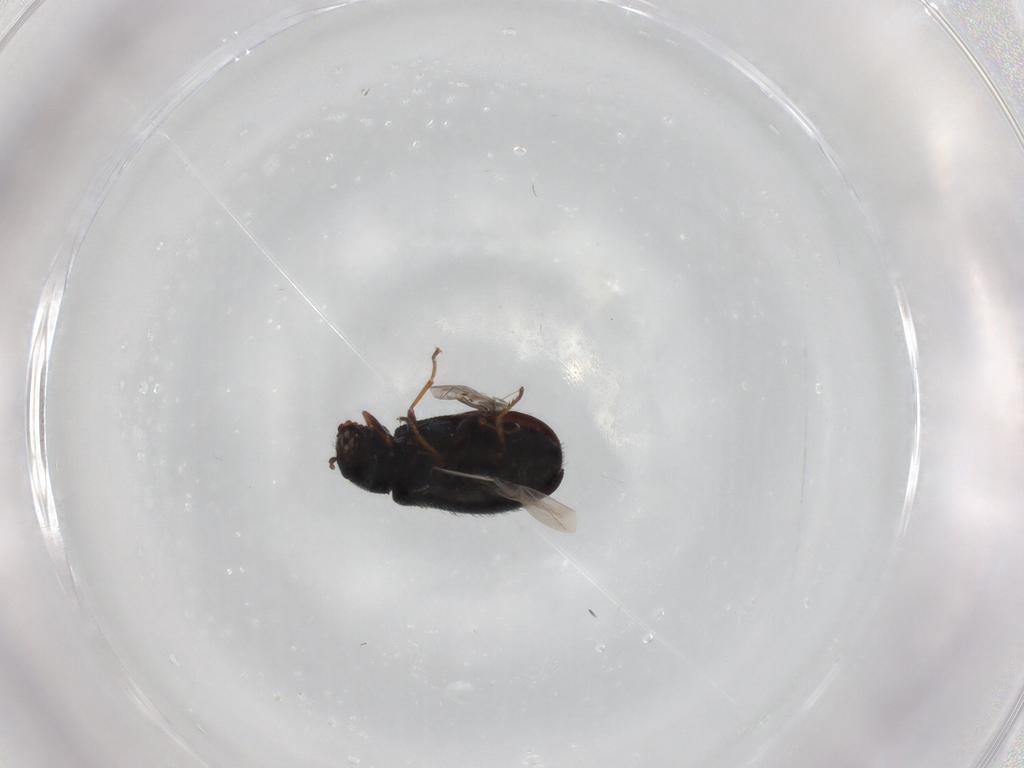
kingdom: Animalia
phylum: Arthropoda
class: Insecta
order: Coleoptera
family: Melyridae
